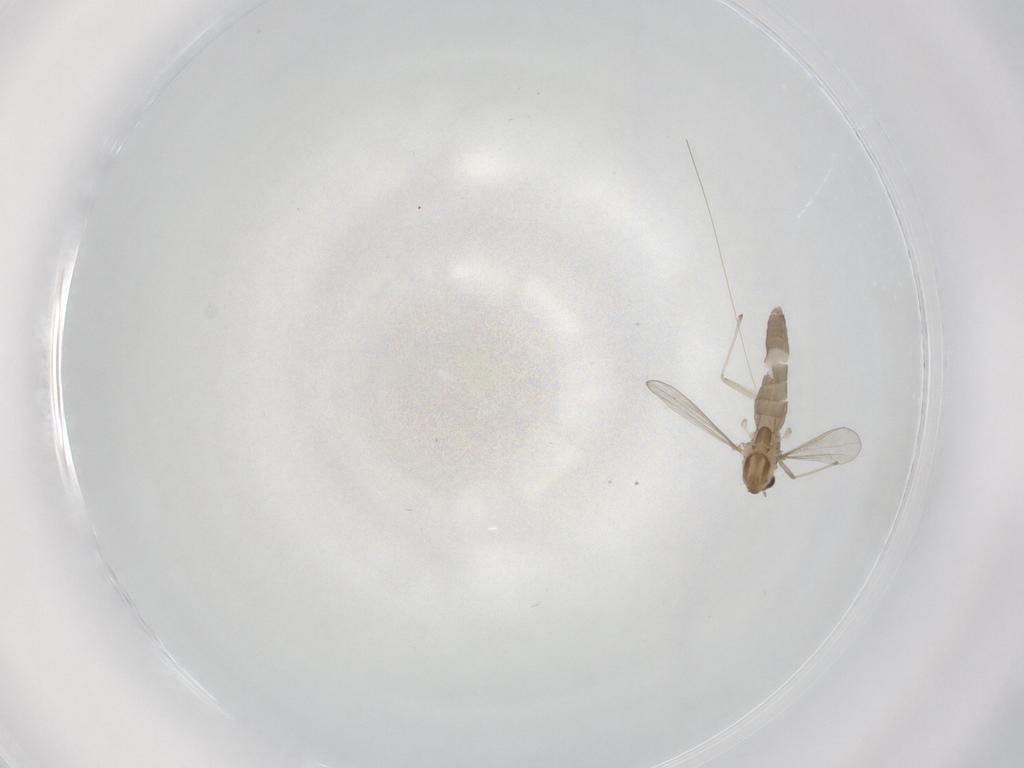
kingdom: Animalia
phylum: Arthropoda
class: Insecta
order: Diptera
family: Chironomidae
